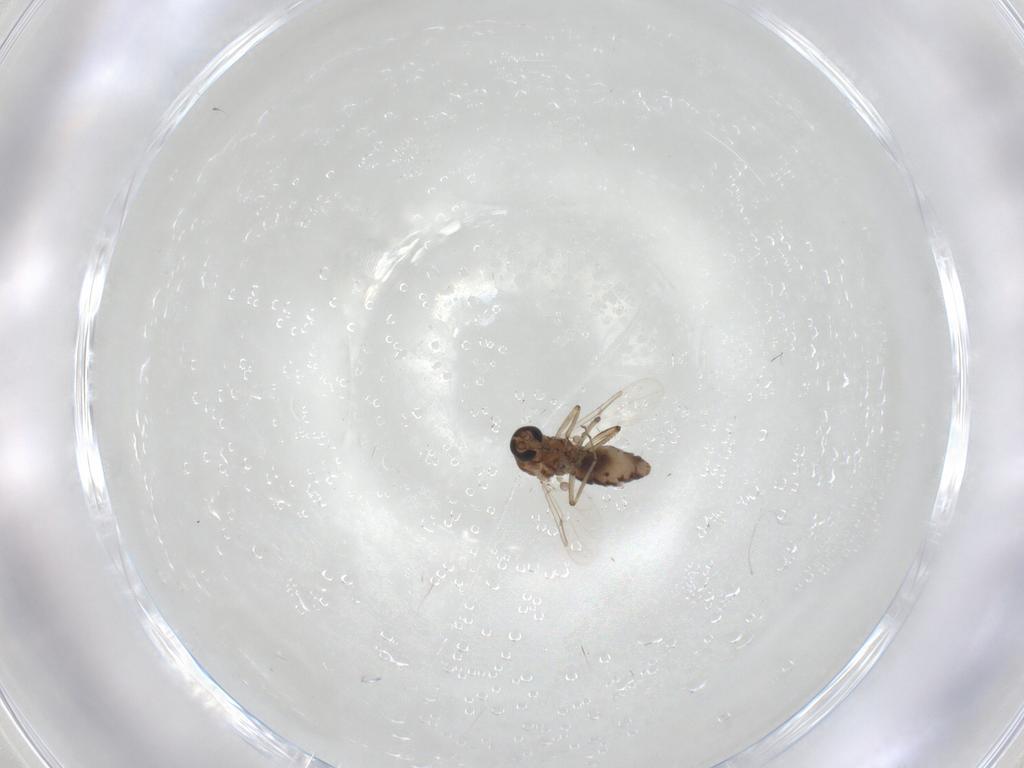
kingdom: Animalia
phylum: Arthropoda
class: Insecta
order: Diptera
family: Ceratopogonidae
